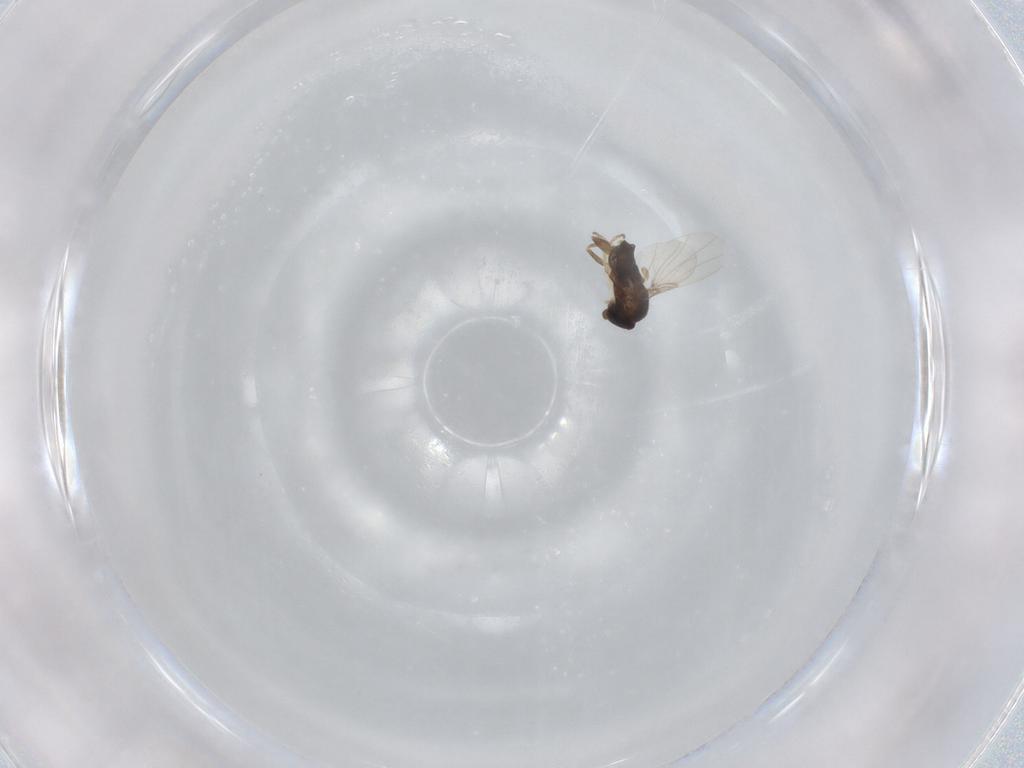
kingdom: Animalia
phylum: Arthropoda
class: Insecta
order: Diptera
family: Phoridae
